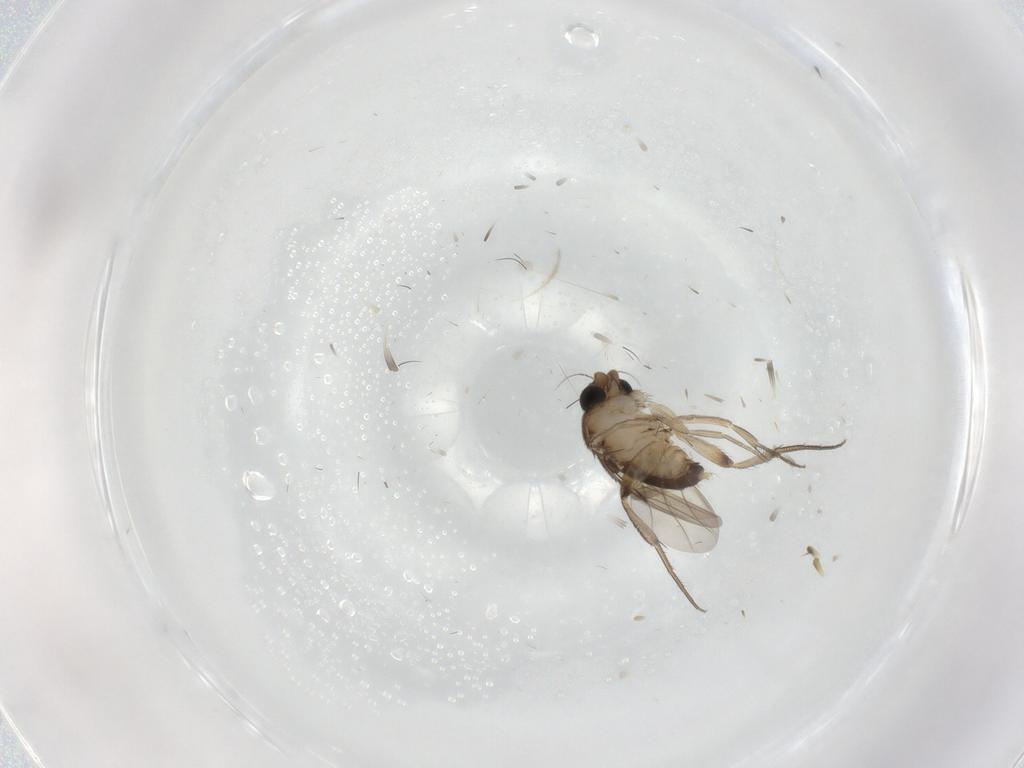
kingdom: Animalia
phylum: Arthropoda
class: Insecta
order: Diptera
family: Phoridae
